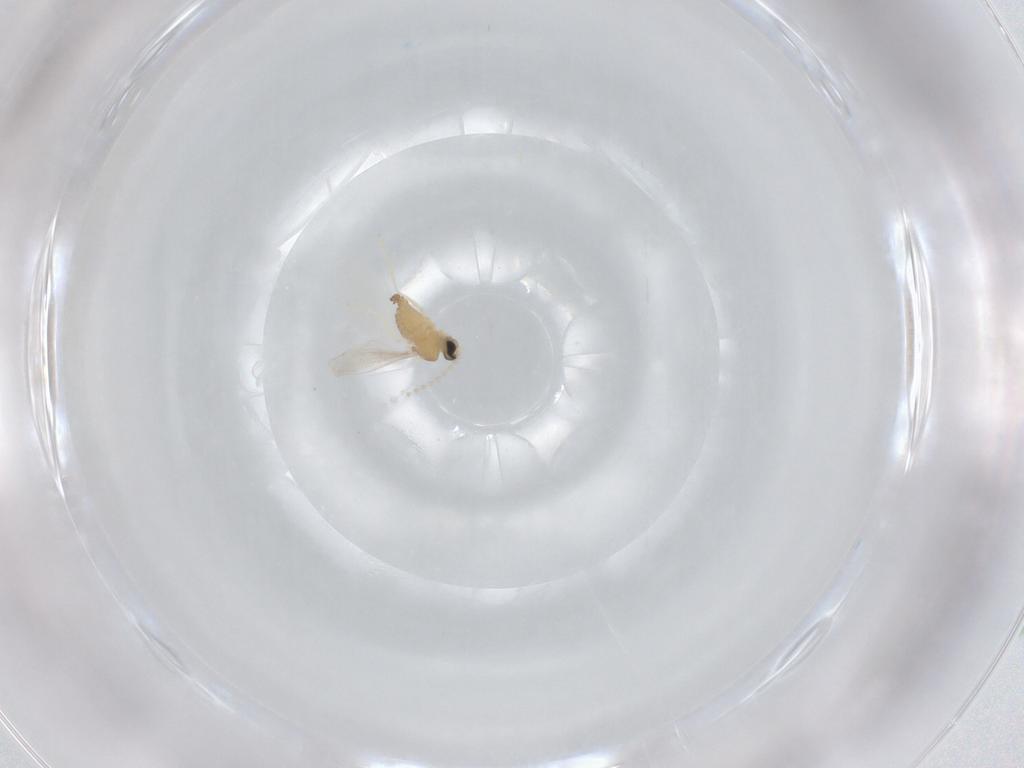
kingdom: Animalia
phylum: Arthropoda
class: Insecta
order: Diptera
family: Cecidomyiidae
